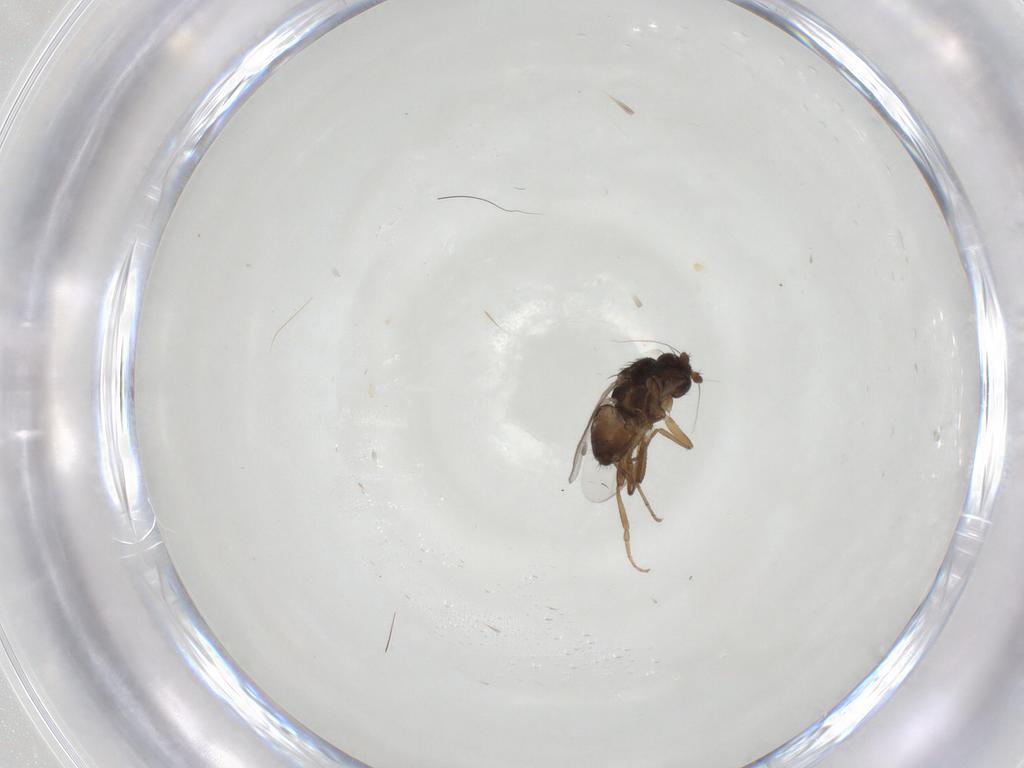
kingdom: Animalia
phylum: Arthropoda
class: Insecta
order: Diptera
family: Sphaeroceridae
